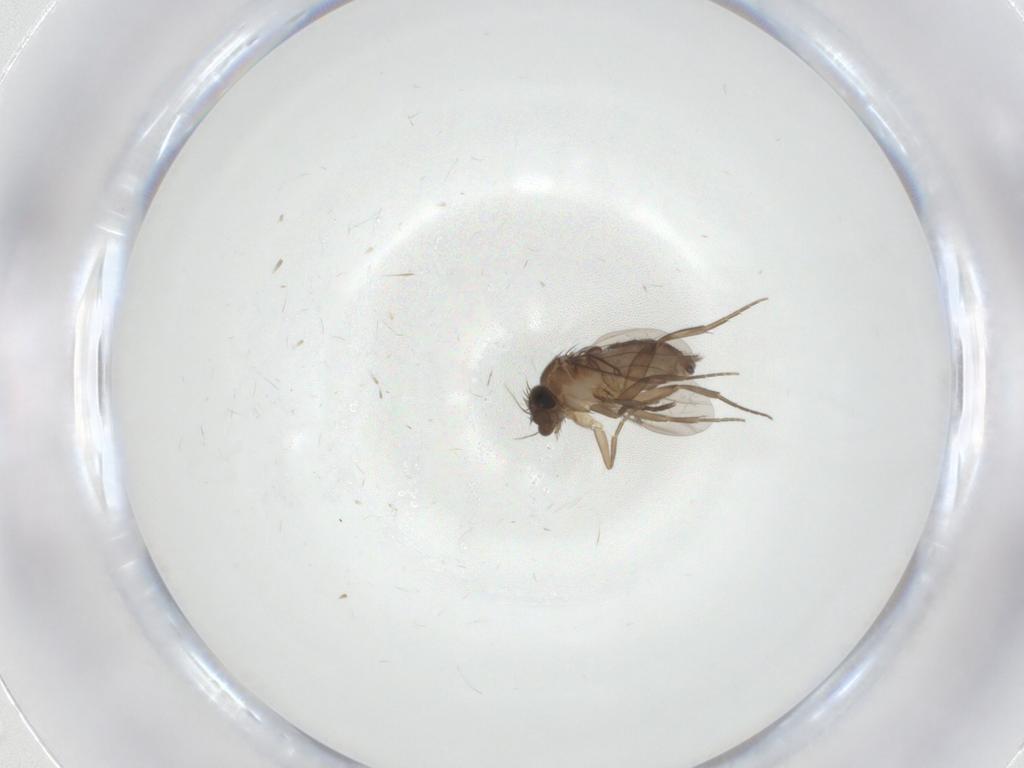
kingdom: Animalia
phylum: Arthropoda
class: Insecta
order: Diptera
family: Phoridae
